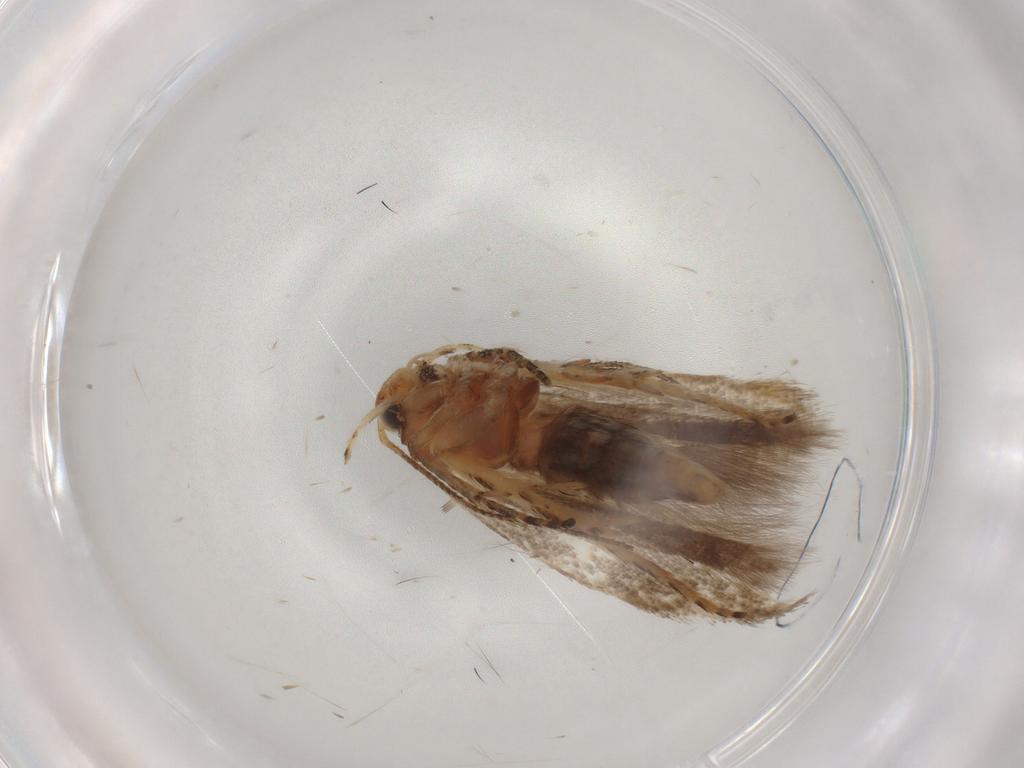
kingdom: Animalia
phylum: Arthropoda
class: Insecta
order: Lepidoptera
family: Gelechiidae
